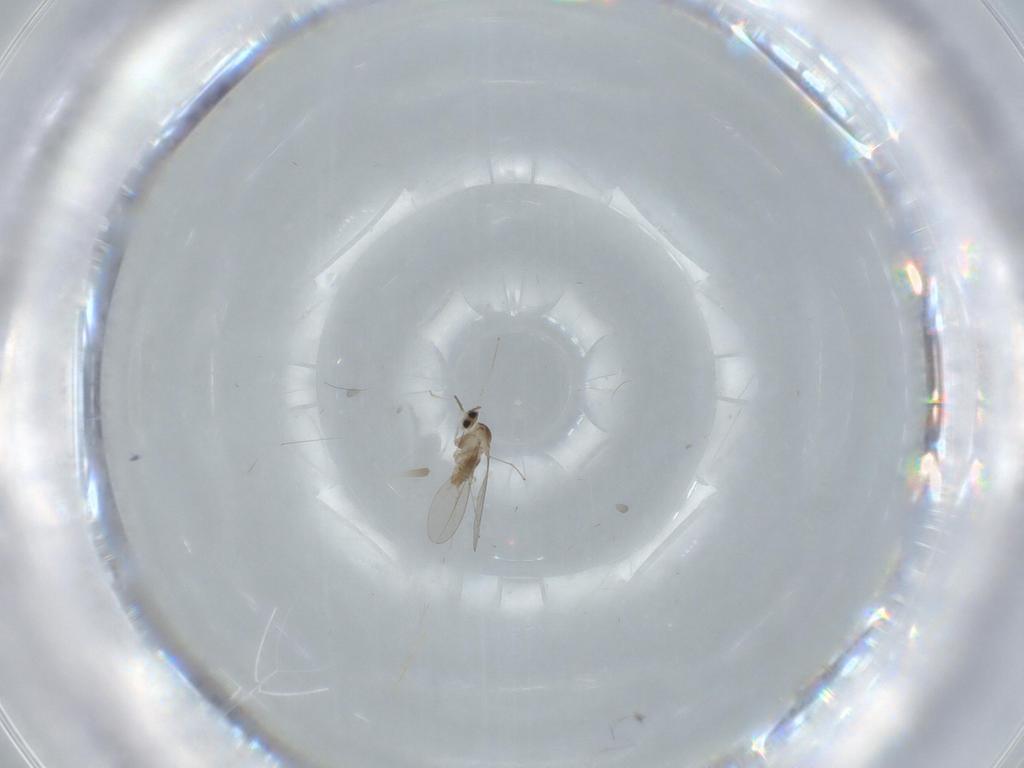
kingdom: Animalia
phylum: Arthropoda
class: Insecta
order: Diptera
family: Cecidomyiidae
